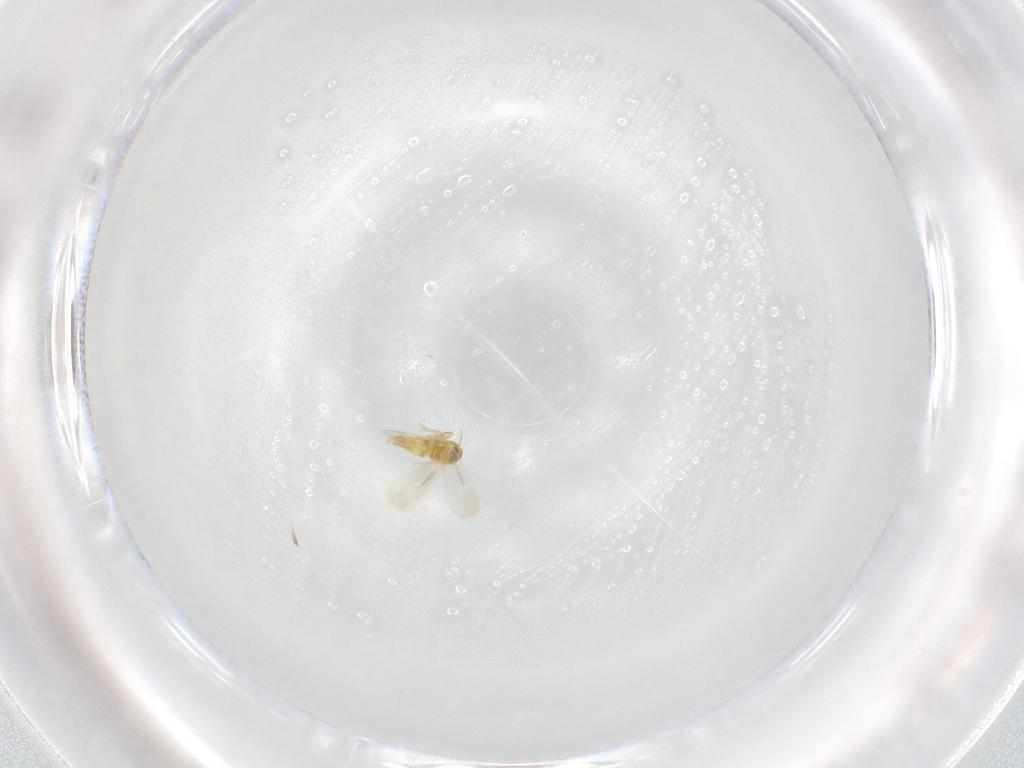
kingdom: Animalia
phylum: Arthropoda
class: Insecta
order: Hemiptera
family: Aleyrodidae
